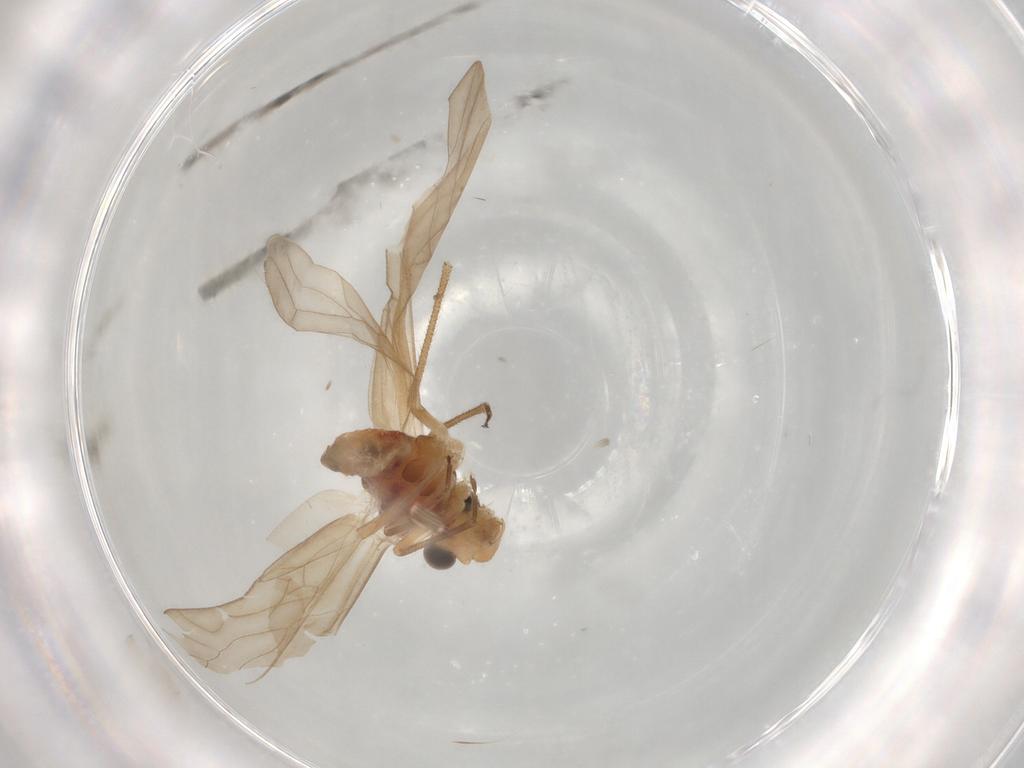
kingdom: Animalia
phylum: Arthropoda
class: Insecta
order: Psocodea
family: Caeciliusidae
